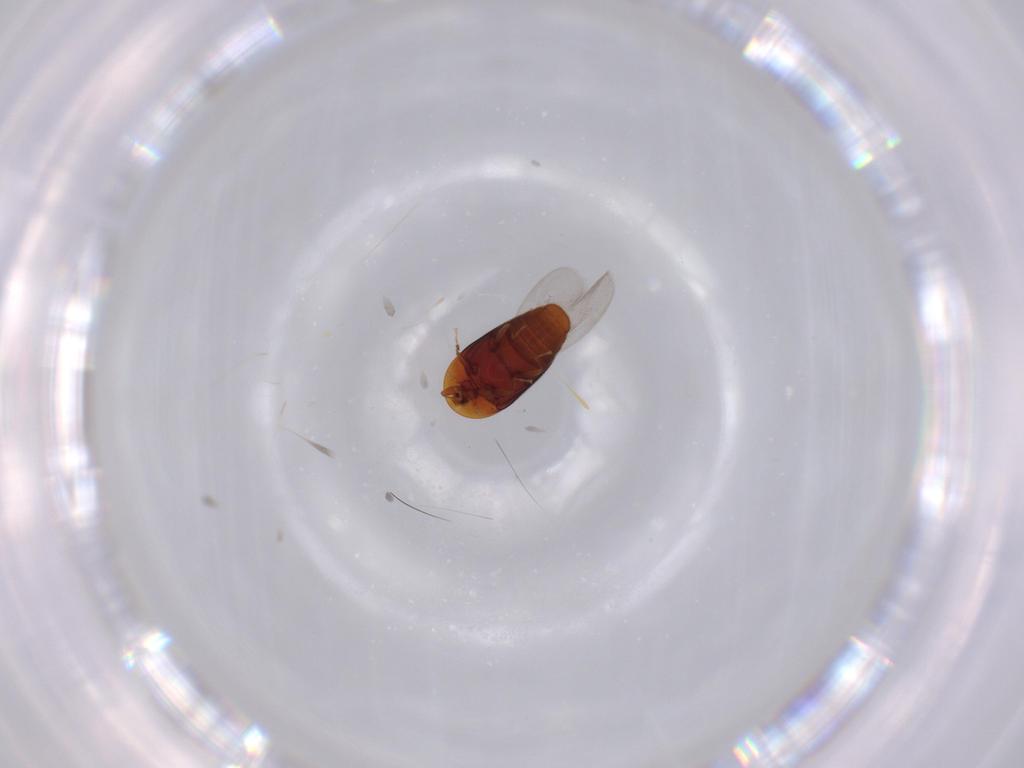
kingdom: Animalia
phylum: Arthropoda
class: Insecta
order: Coleoptera
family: Corylophidae
